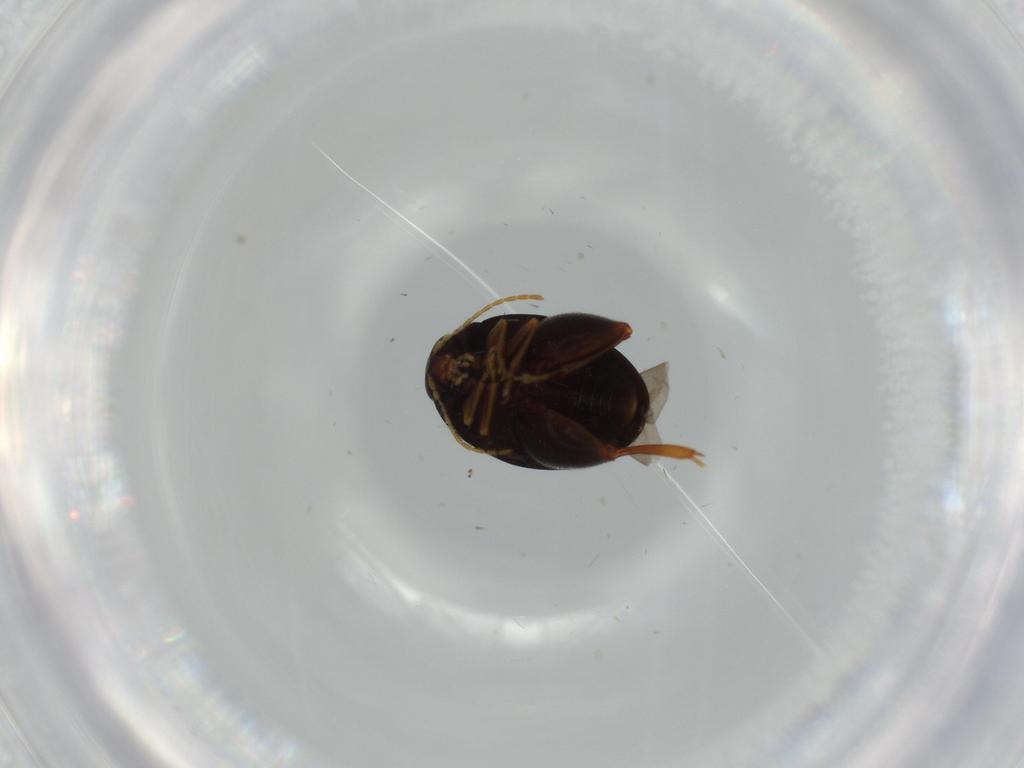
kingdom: Animalia
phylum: Arthropoda
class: Insecta
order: Coleoptera
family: Chrysomelidae
